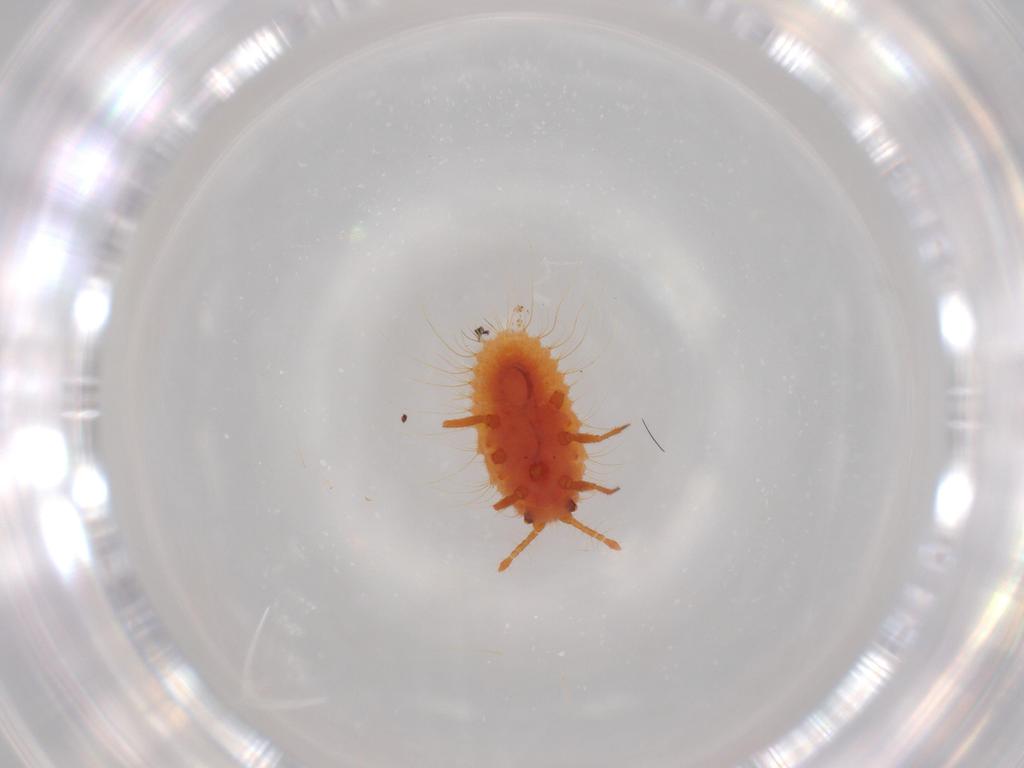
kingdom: Animalia
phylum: Arthropoda
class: Insecta
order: Hemiptera
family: Coccoidea_incertae_sedis
